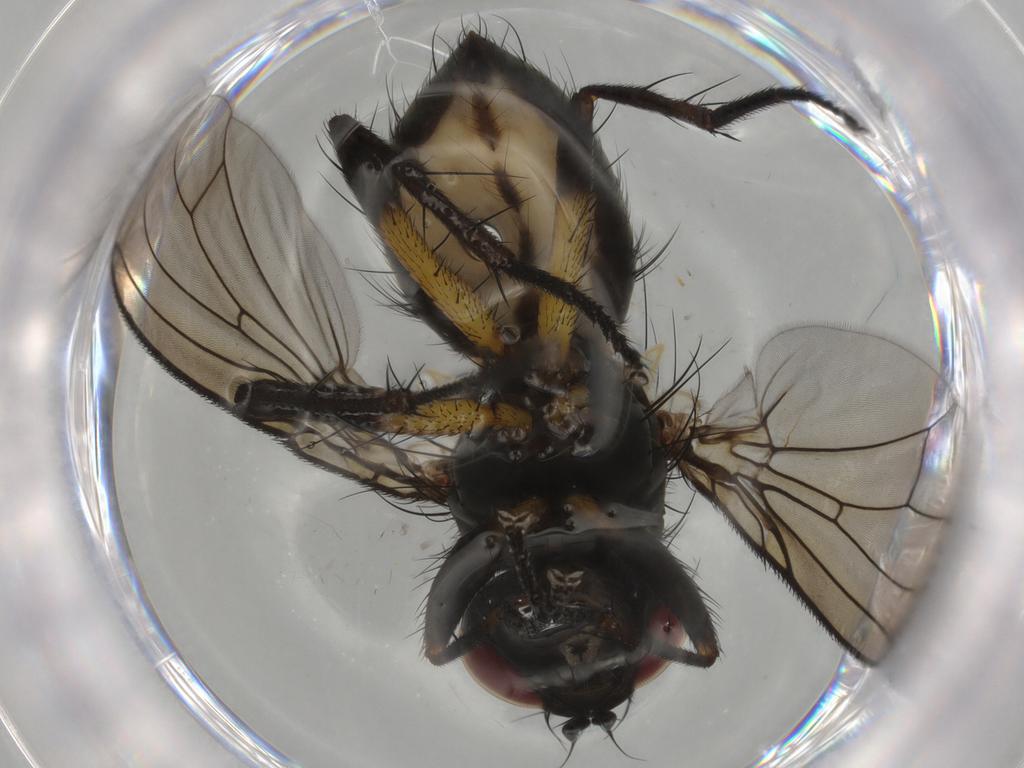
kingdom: Animalia
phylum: Arthropoda
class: Insecta
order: Diptera
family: Muscidae
